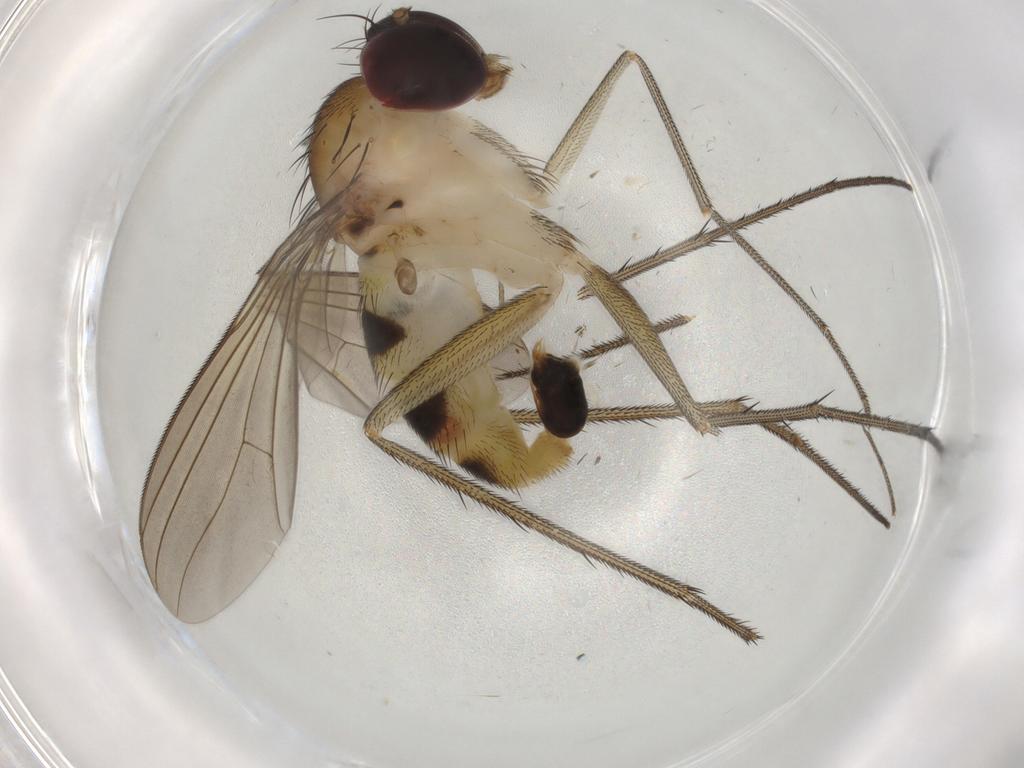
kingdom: Animalia
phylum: Arthropoda
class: Insecta
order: Diptera
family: Dolichopodidae
